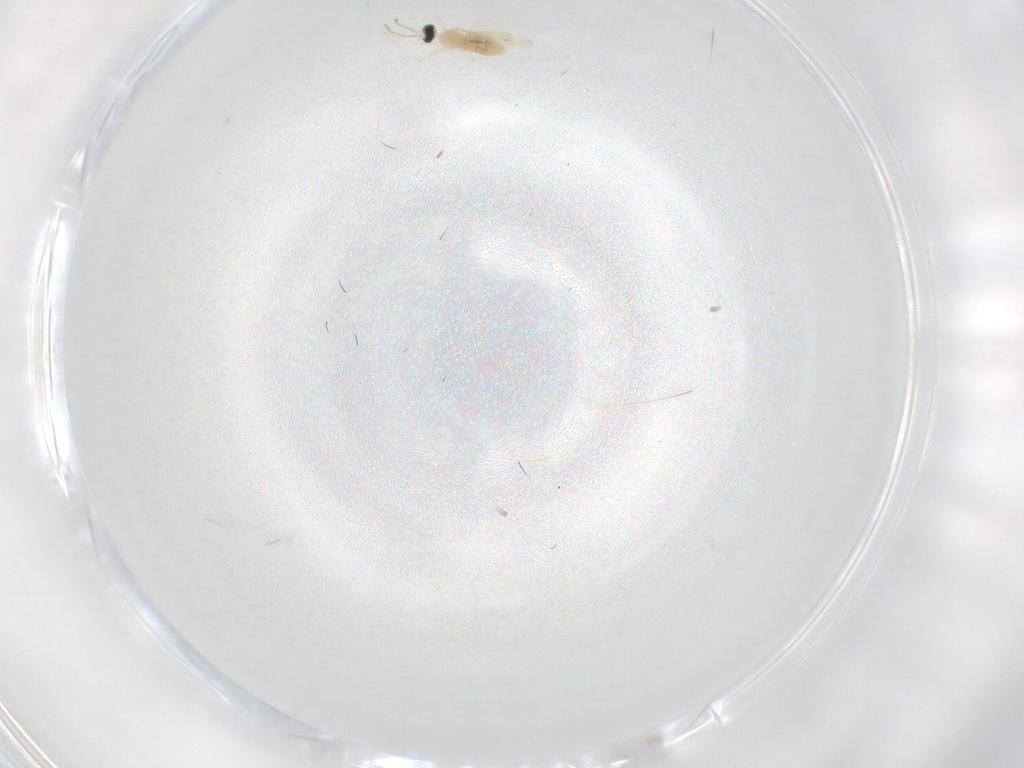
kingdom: Animalia
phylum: Arthropoda
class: Insecta
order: Diptera
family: Cecidomyiidae
